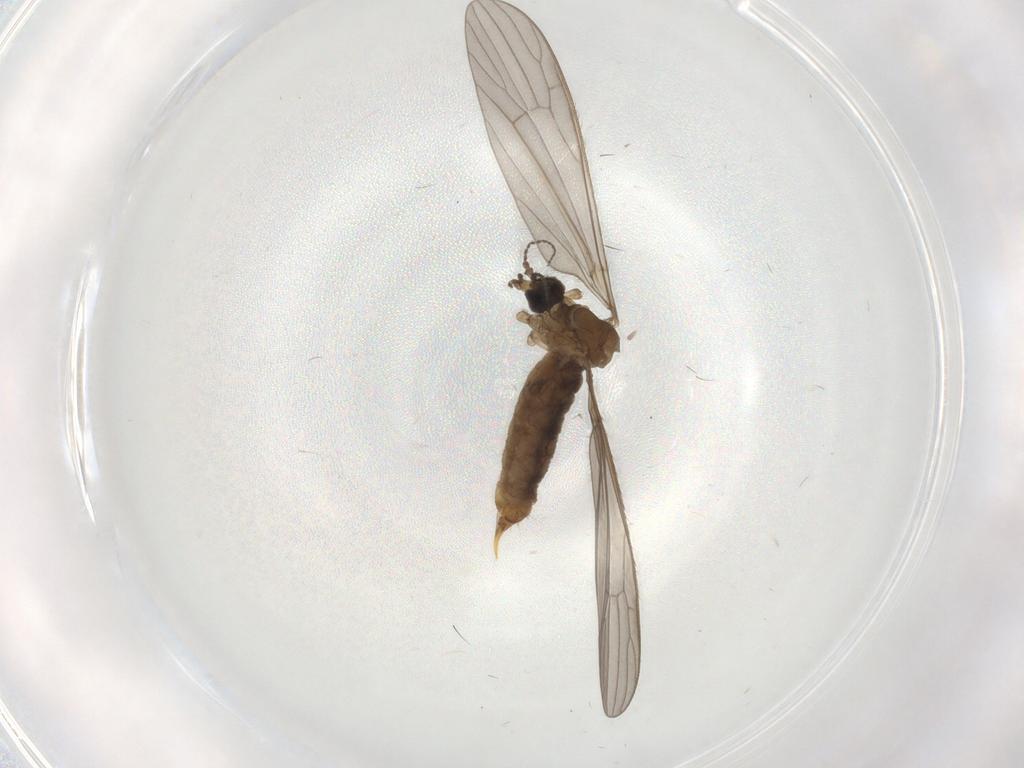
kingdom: Animalia
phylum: Arthropoda
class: Insecta
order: Diptera
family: Limoniidae
